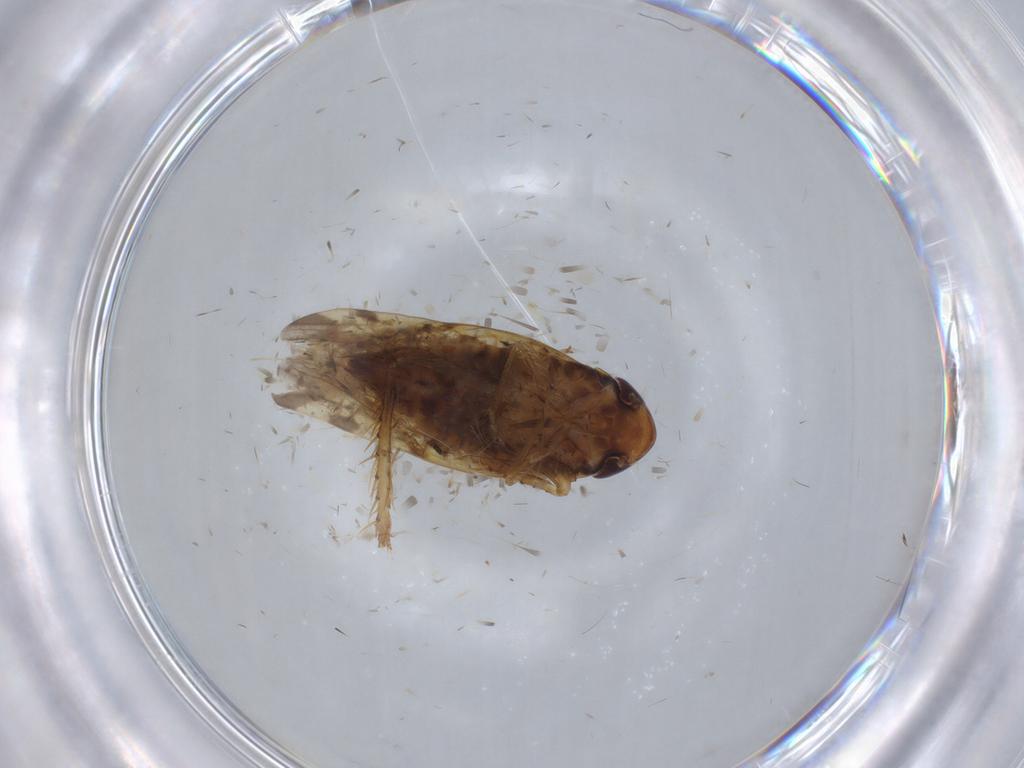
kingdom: Animalia
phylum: Arthropoda
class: Insecta
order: Hemiptera
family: Cicadellidae
